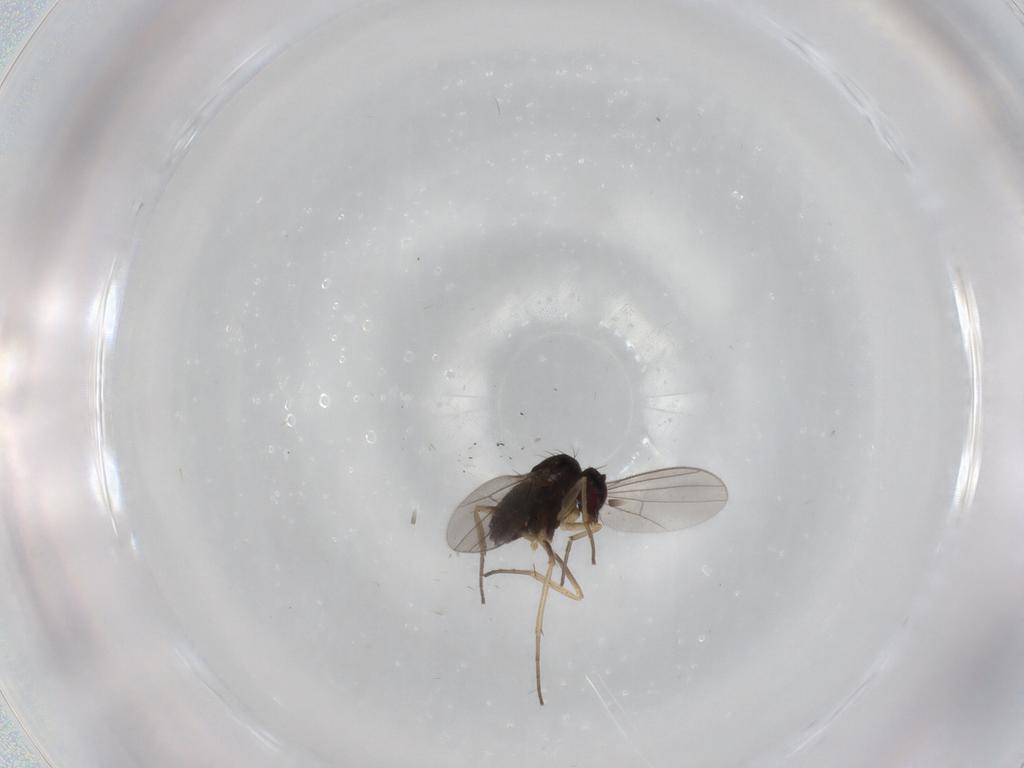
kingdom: Animalia
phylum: Arthropoda
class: Insecta
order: Diptera
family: Dolichopodidae
